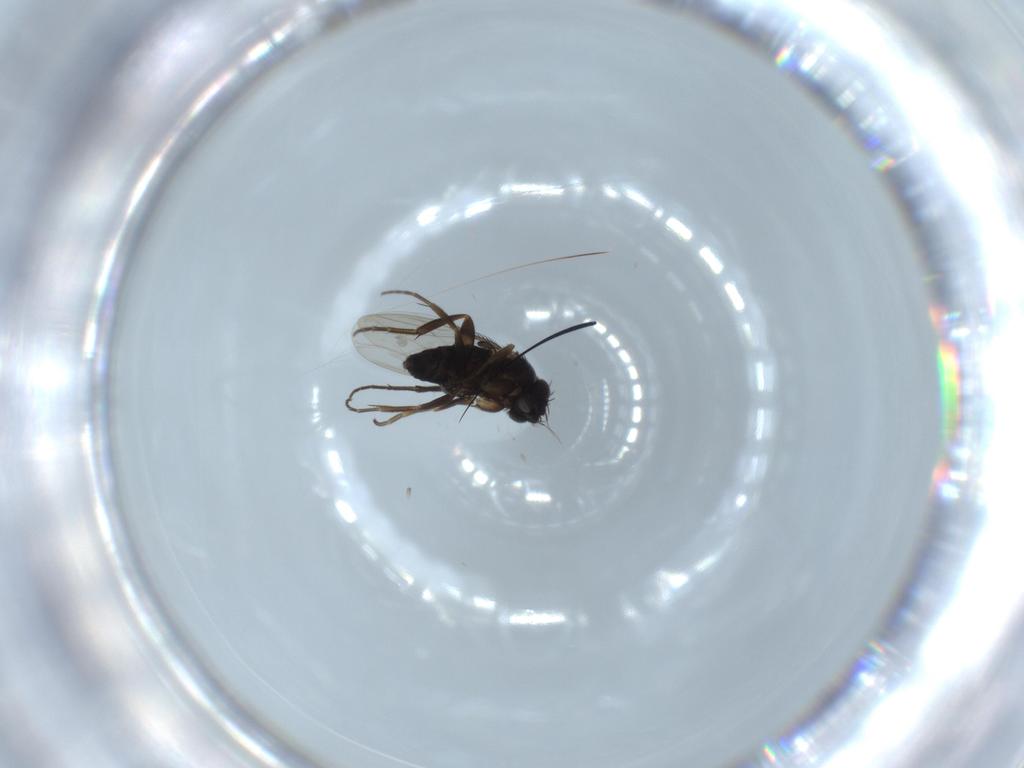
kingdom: Animalia
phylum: Arthropoda
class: Insecta
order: Diptera
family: Phoridae
